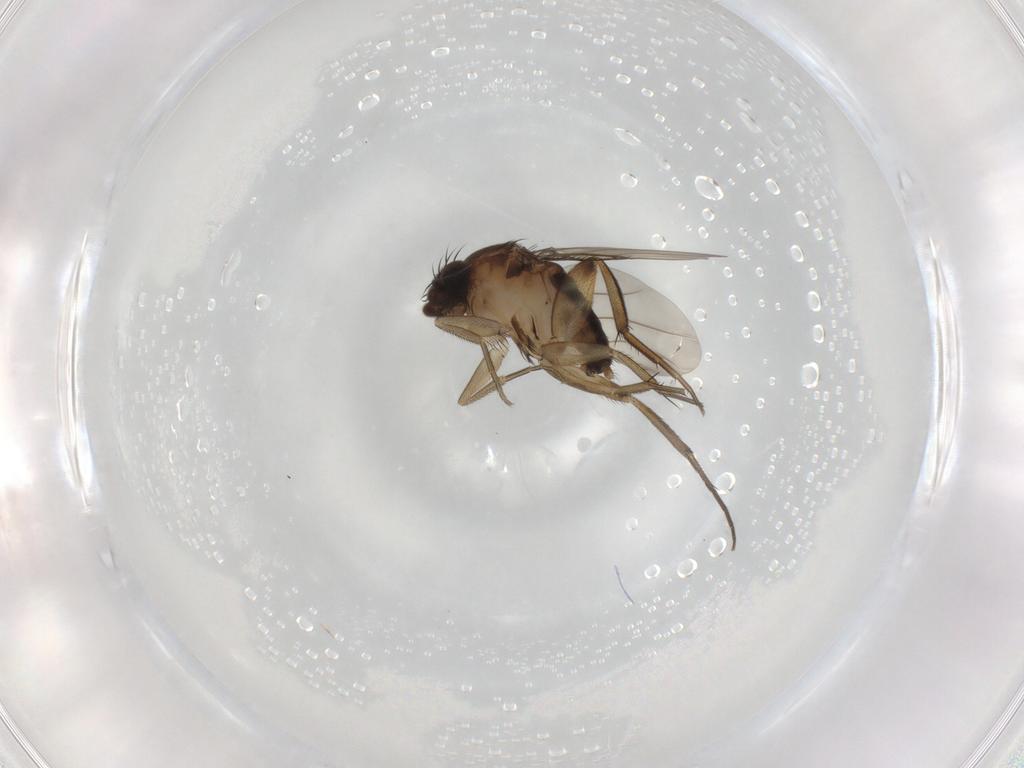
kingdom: Animalia
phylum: Arthropoda
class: Insecta
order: Diptera
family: Phoridae
